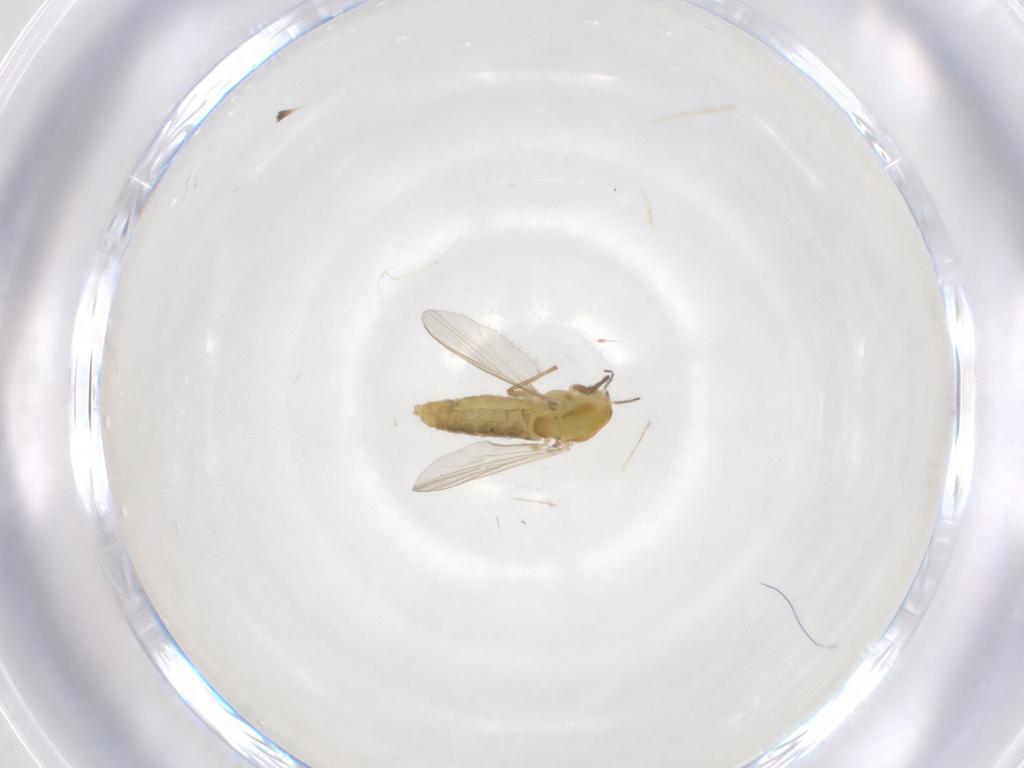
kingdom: Animalia
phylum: Arthropoda
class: Insecta
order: Diptera
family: Chironomidae
